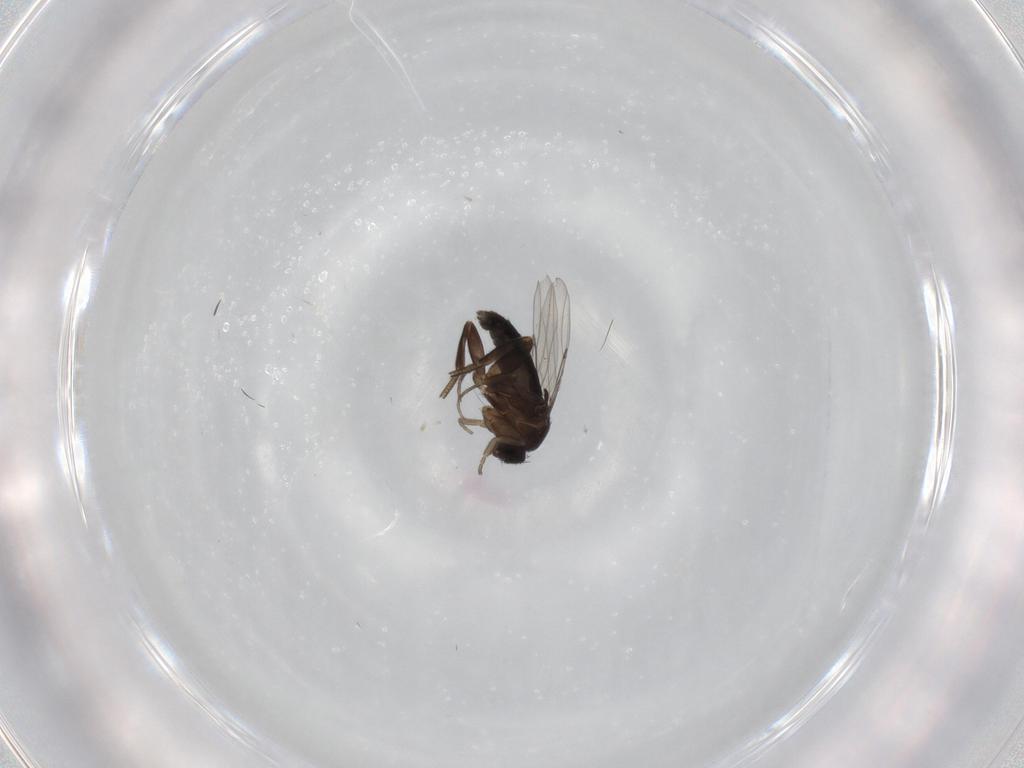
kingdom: Animalia
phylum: Arthropoda
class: Insecta
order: Diptera
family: Phoridae
